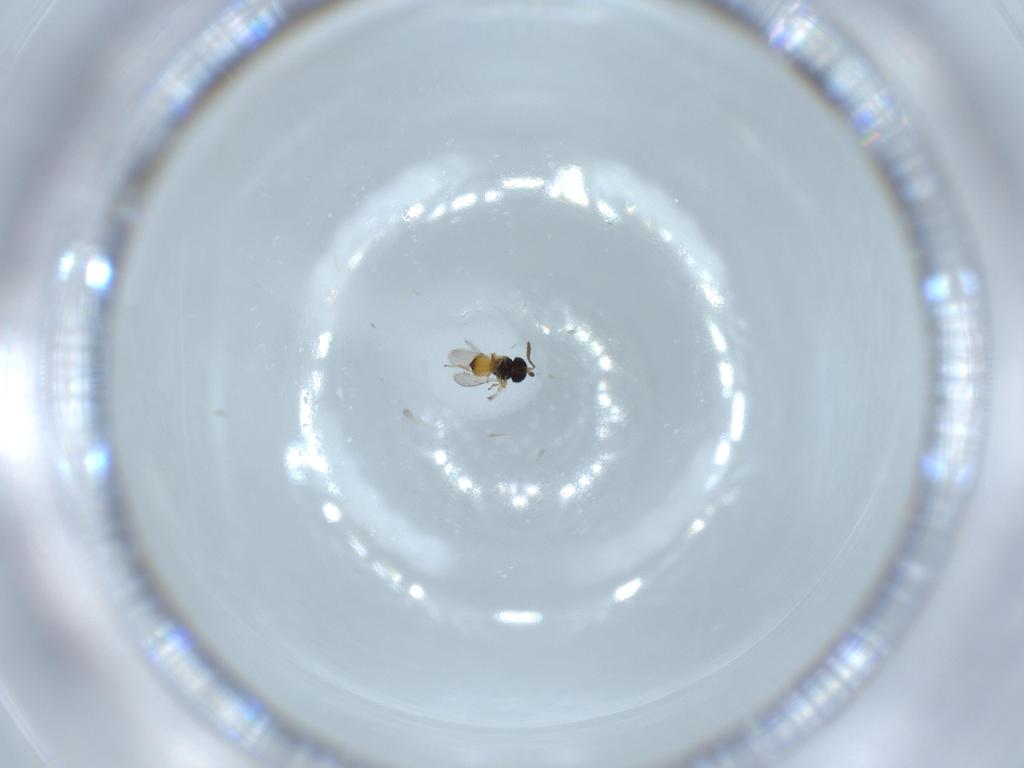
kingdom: Animalia
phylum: Arthropoda
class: Insecta
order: Hymenoptera
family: Scelionidae
